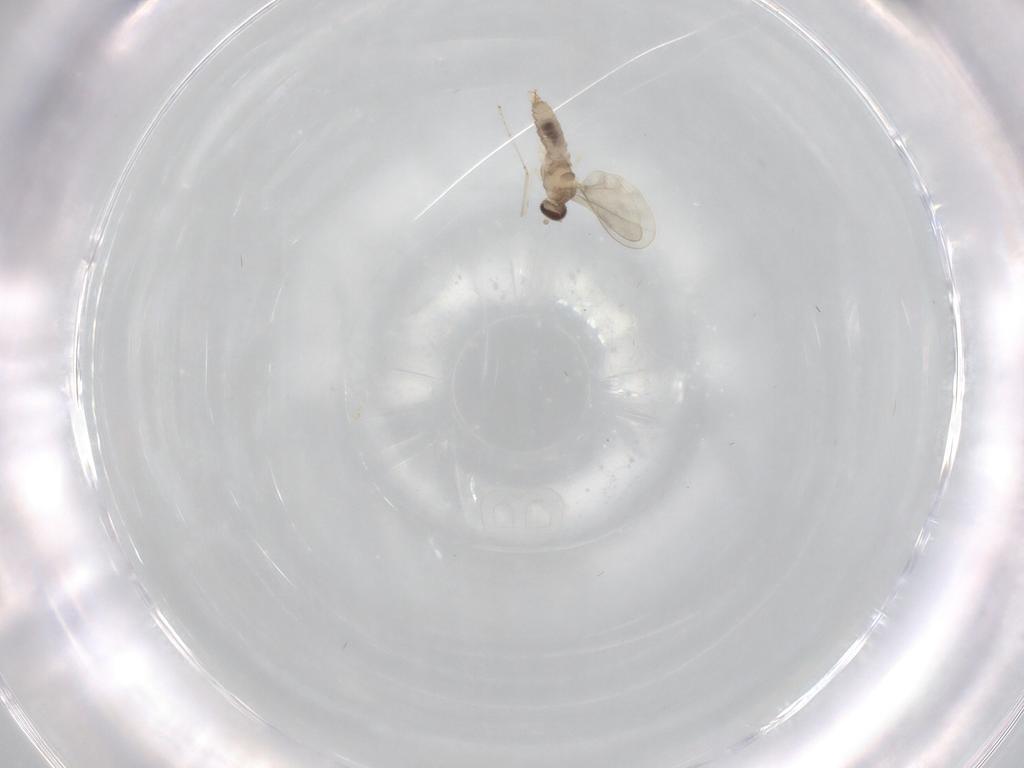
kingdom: Animalia
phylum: Arthropoda
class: Insecta
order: Diptera
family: Cecidomyiidae
